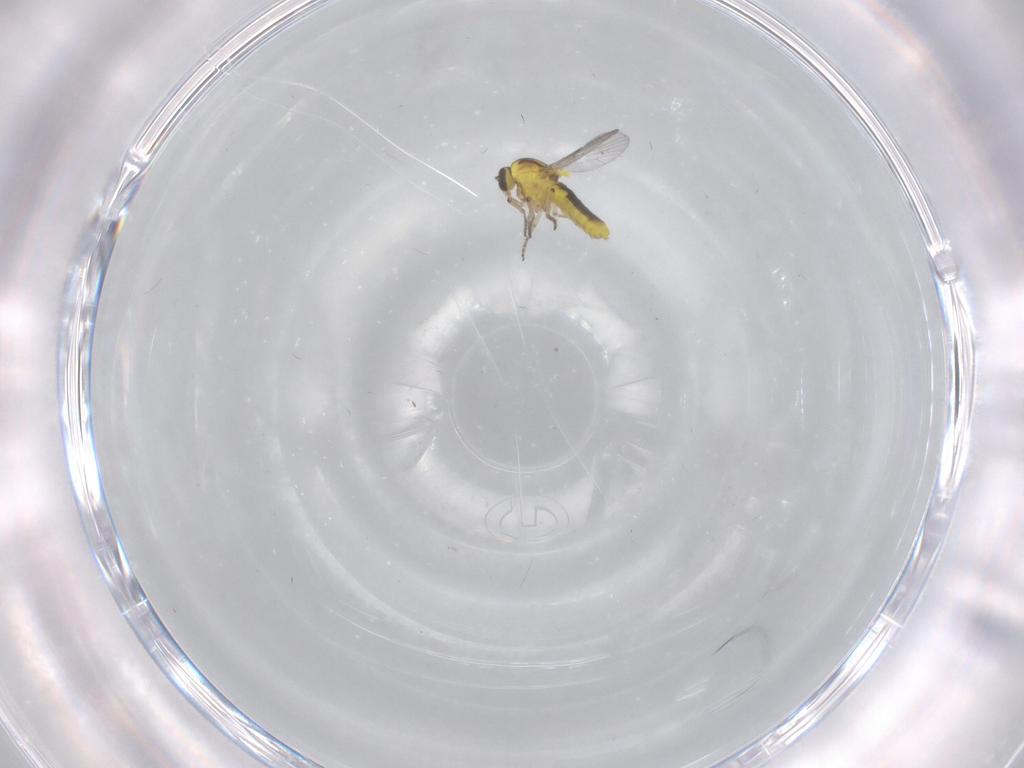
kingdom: Animalia
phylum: Arthropoda
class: Insecta
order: Diptera
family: Ceratopogonidae
